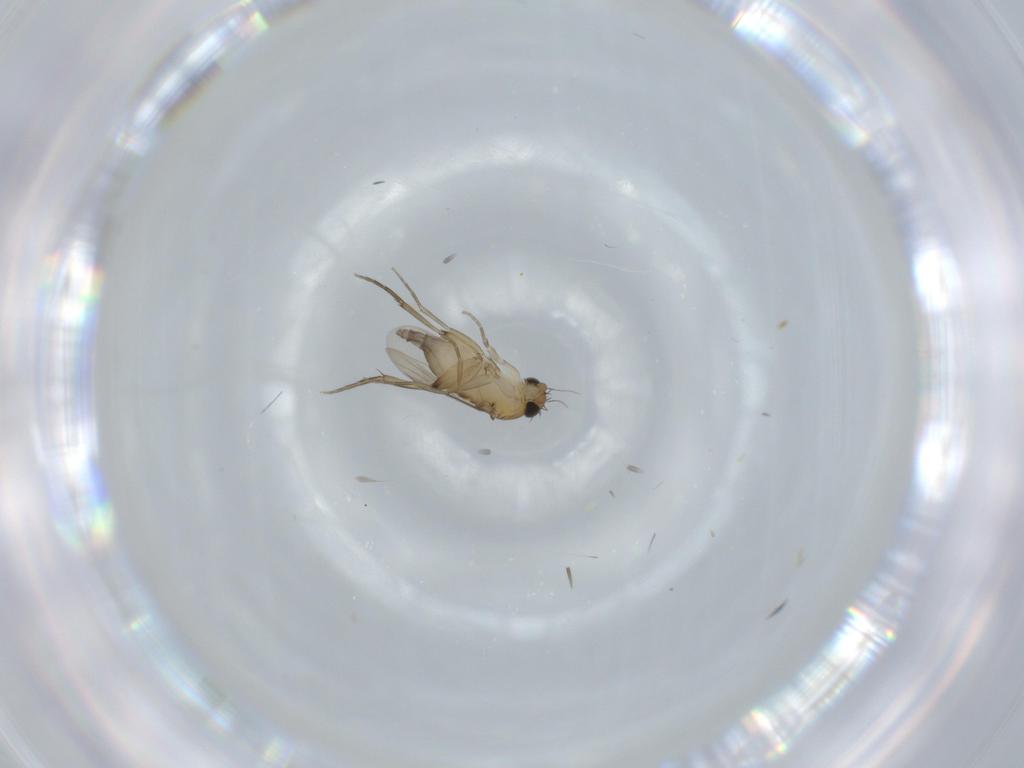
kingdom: Animalia
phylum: Arthropoda
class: Insecta
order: Diptera
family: Phoridae
